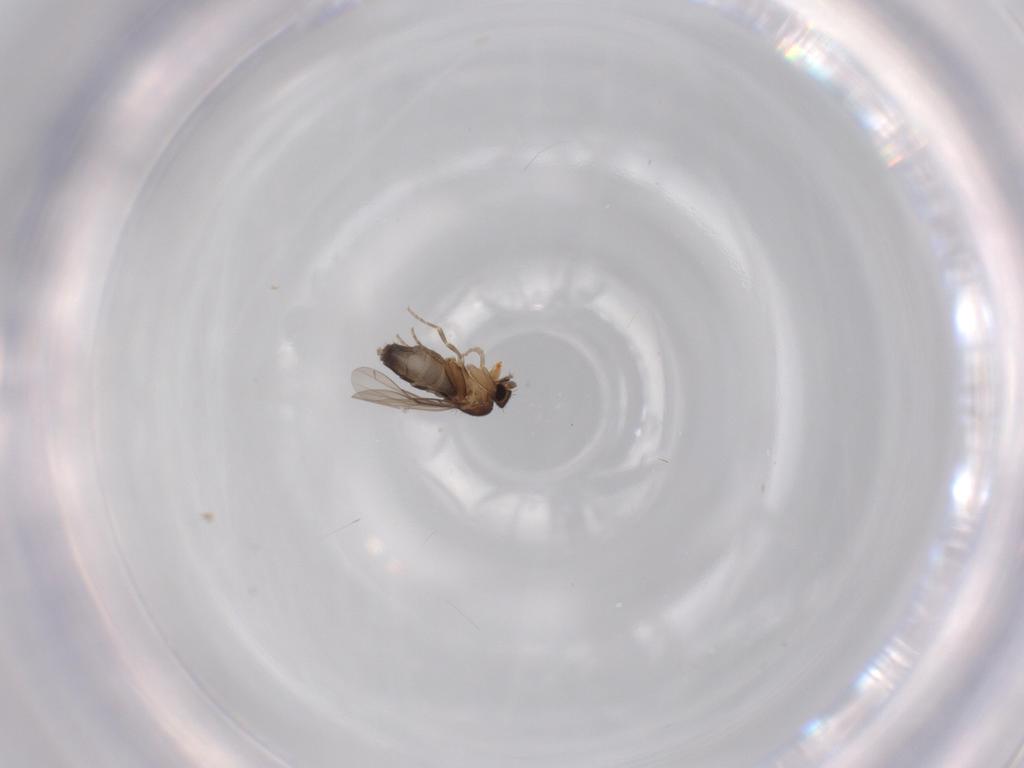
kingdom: Animalia
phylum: Arthropoda
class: Insecta
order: Diptera
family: Phoridae
